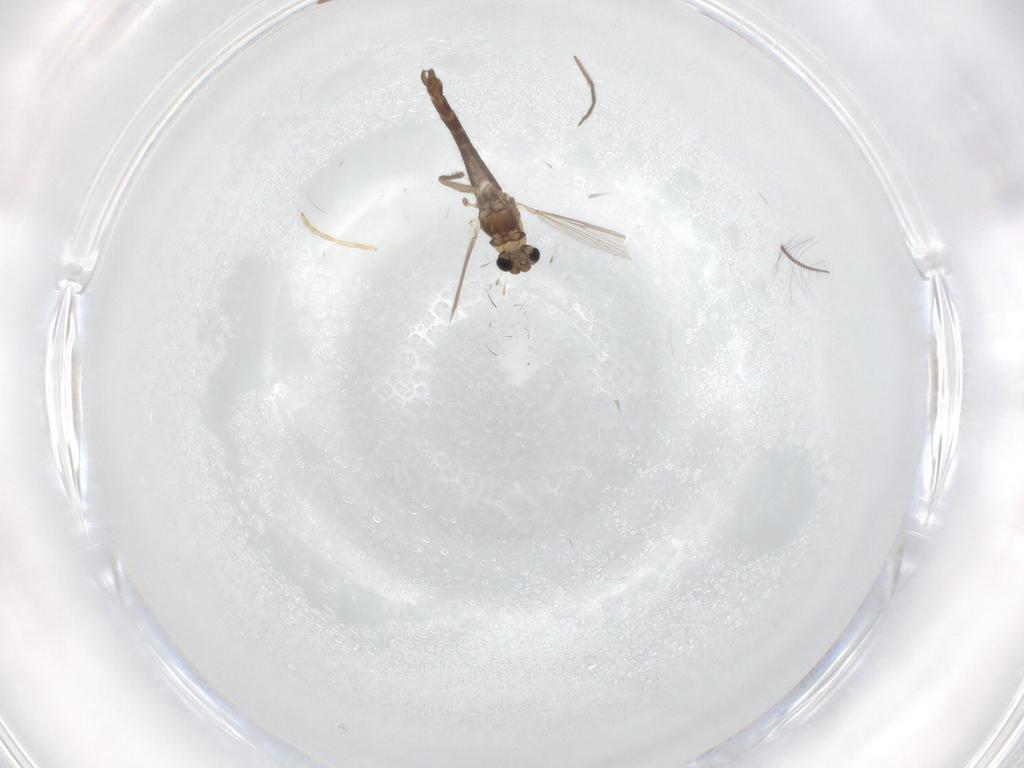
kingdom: Animalia
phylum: Arthropoda
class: Insecta
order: Diptera
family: Chironomidae
